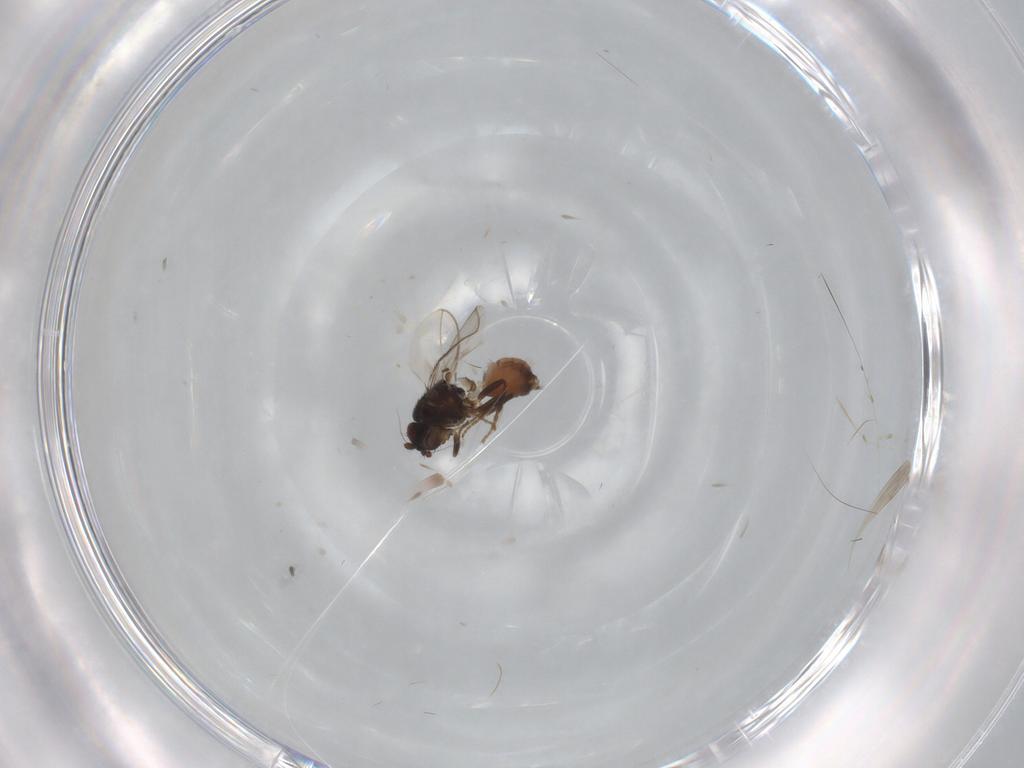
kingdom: Animalia
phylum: Arthropoda
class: Insecta
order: Diptera
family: Sphaeroceridae
